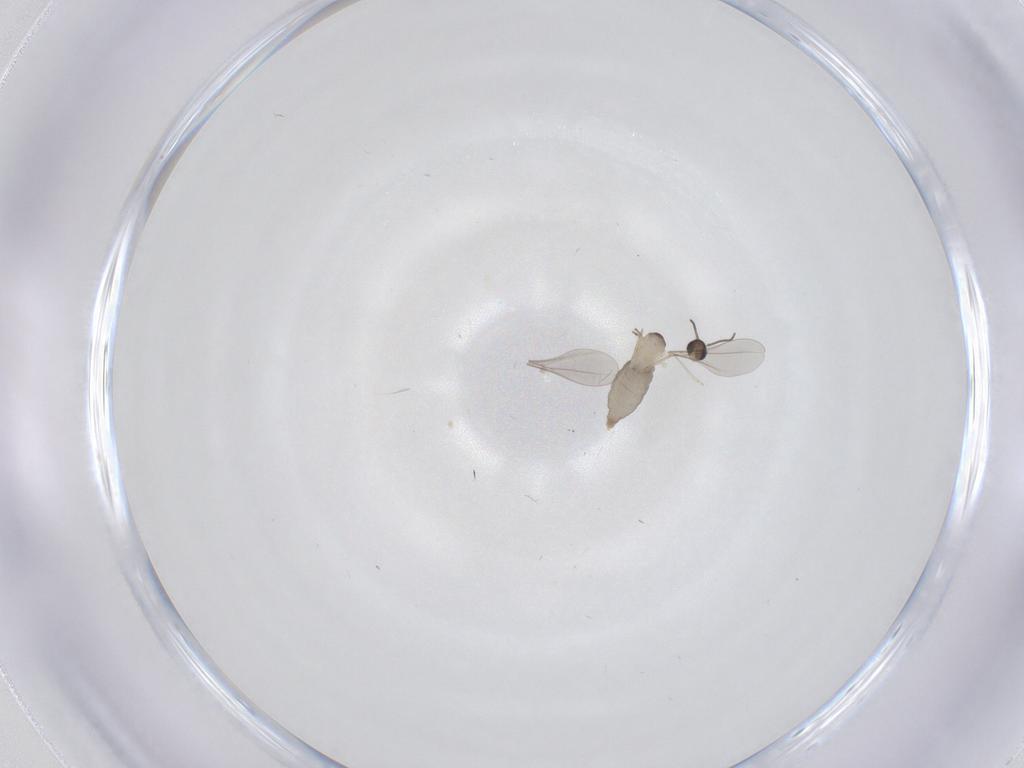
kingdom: Animalia
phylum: Arthropoda
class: Insecta
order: Diptera
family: Cecidomyiidae
